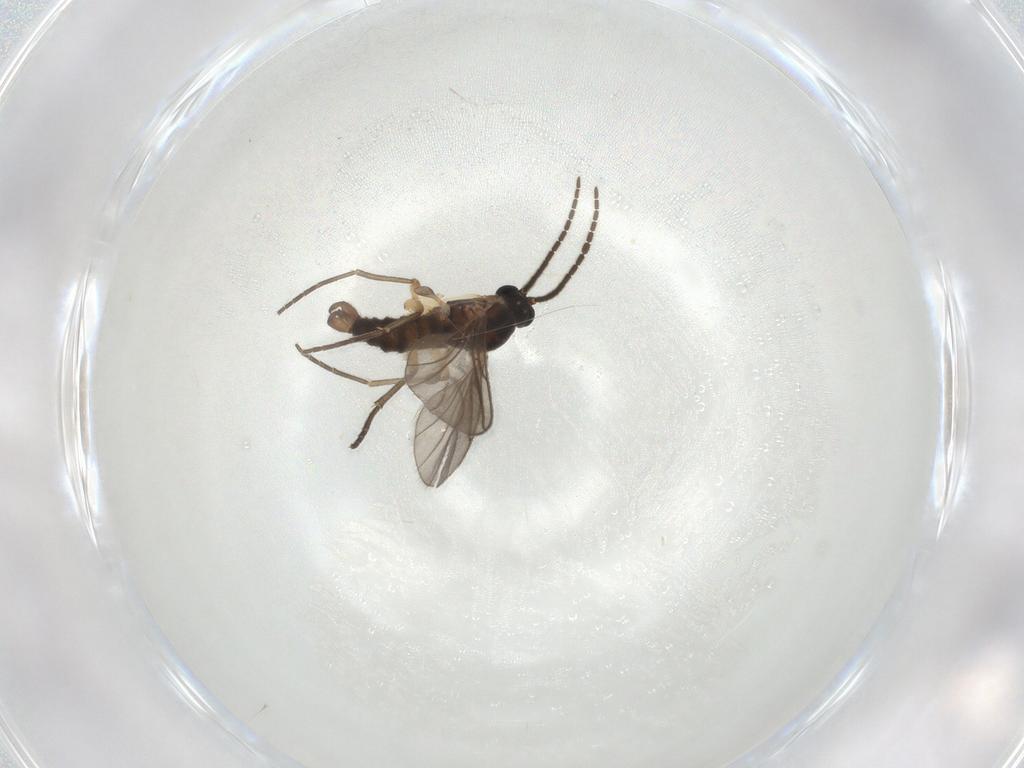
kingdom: Animalia
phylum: Arthropoda
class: Insecta
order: Diptera
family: Sciaridae
